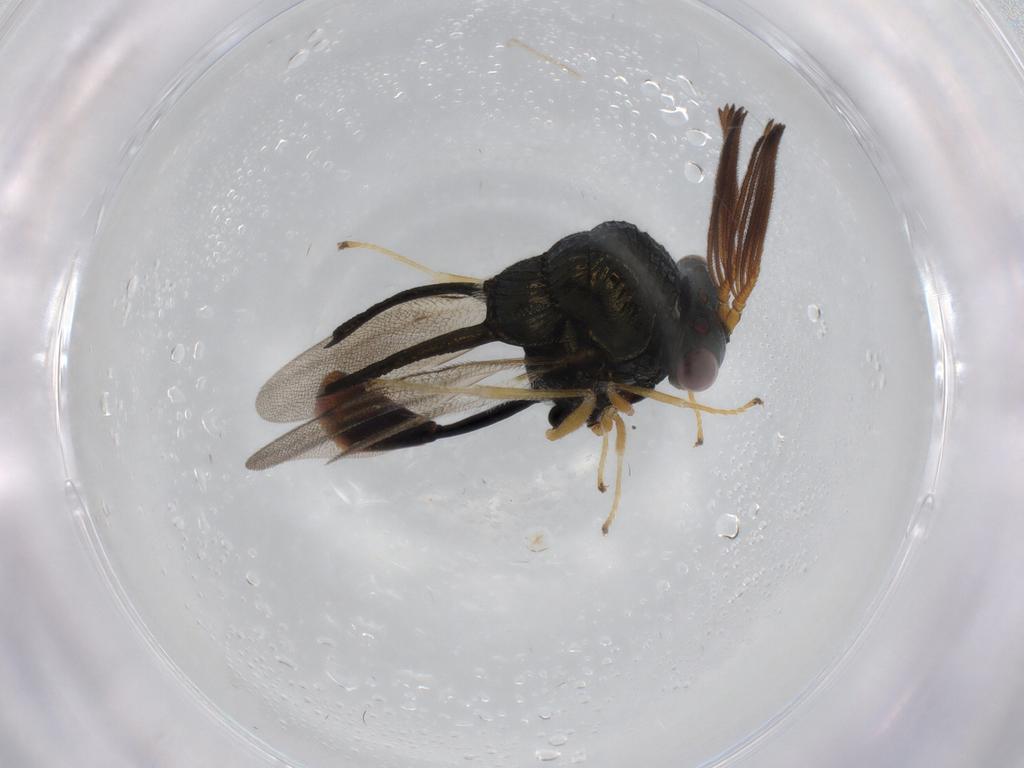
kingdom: Animalia
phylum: Arthropoda
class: Insecta
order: Hymenoptera
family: Eucharitidae
